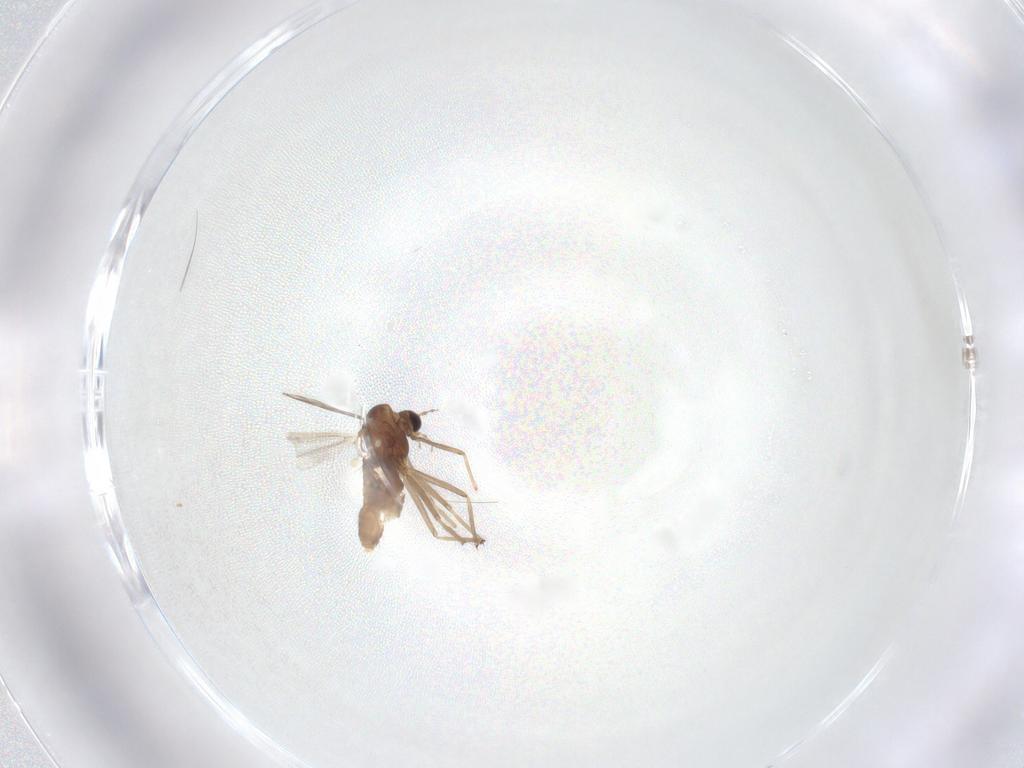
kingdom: Animalia
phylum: Arthropoda
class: Insecta
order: Diptera
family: Chironomidae
